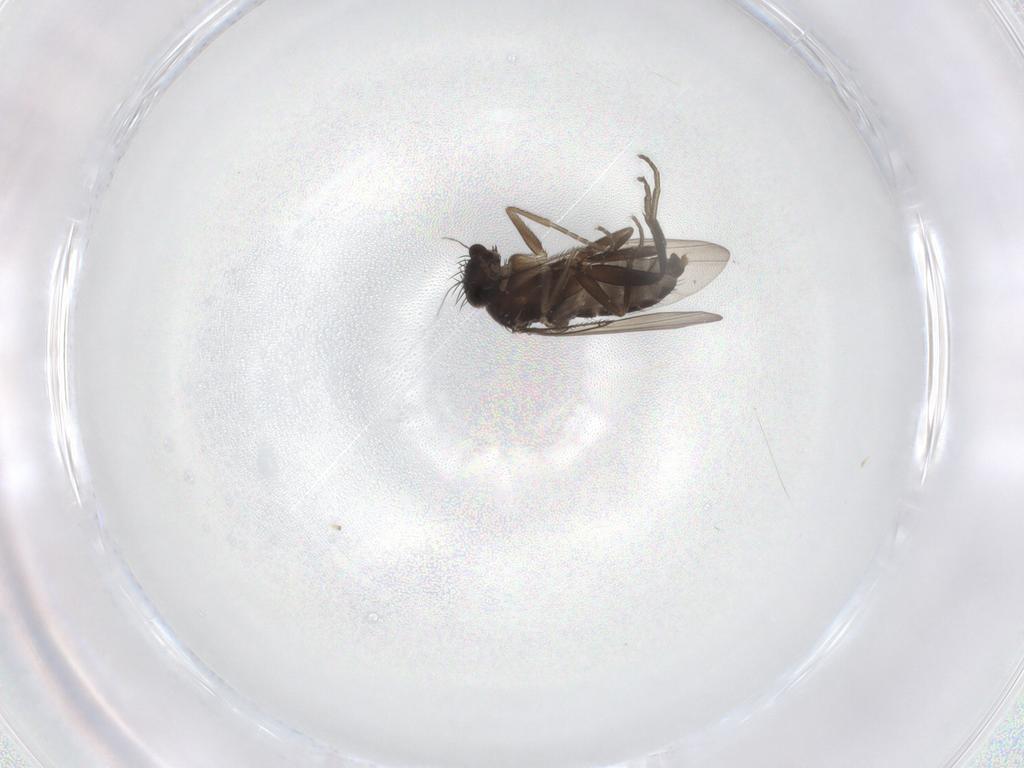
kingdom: Animalia
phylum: Arthropoda
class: Insecta
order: Diptera
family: Phoridae
